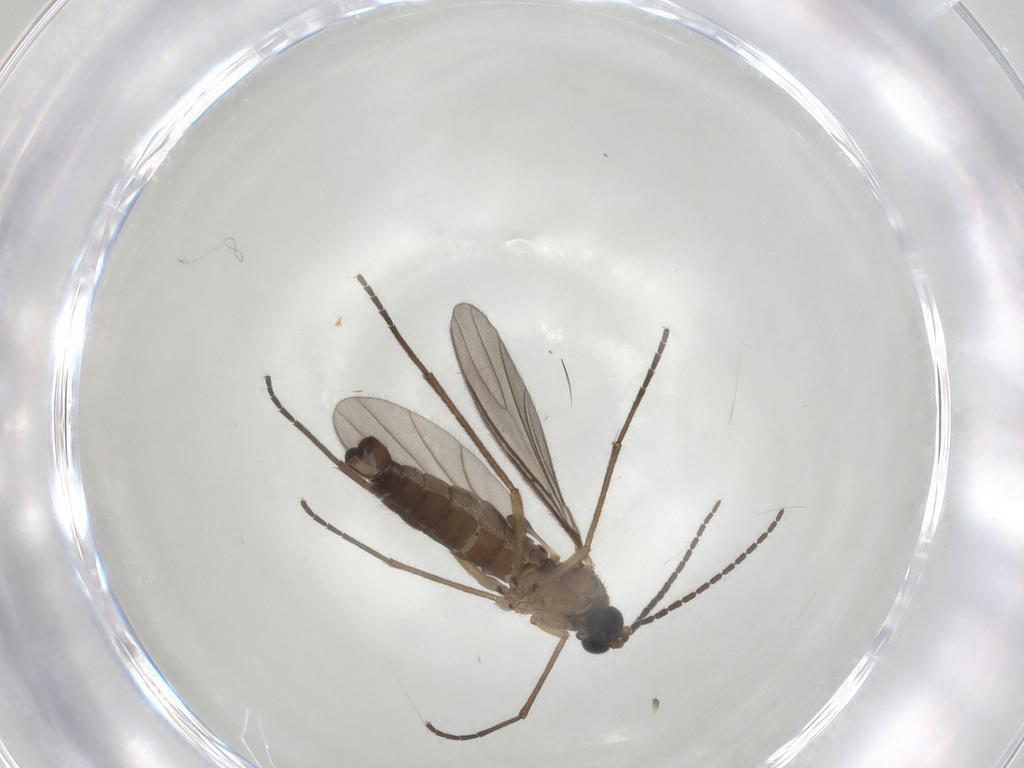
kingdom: Animalia
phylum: Arthropoda
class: Insecta
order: Diptera
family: Sciaridae
